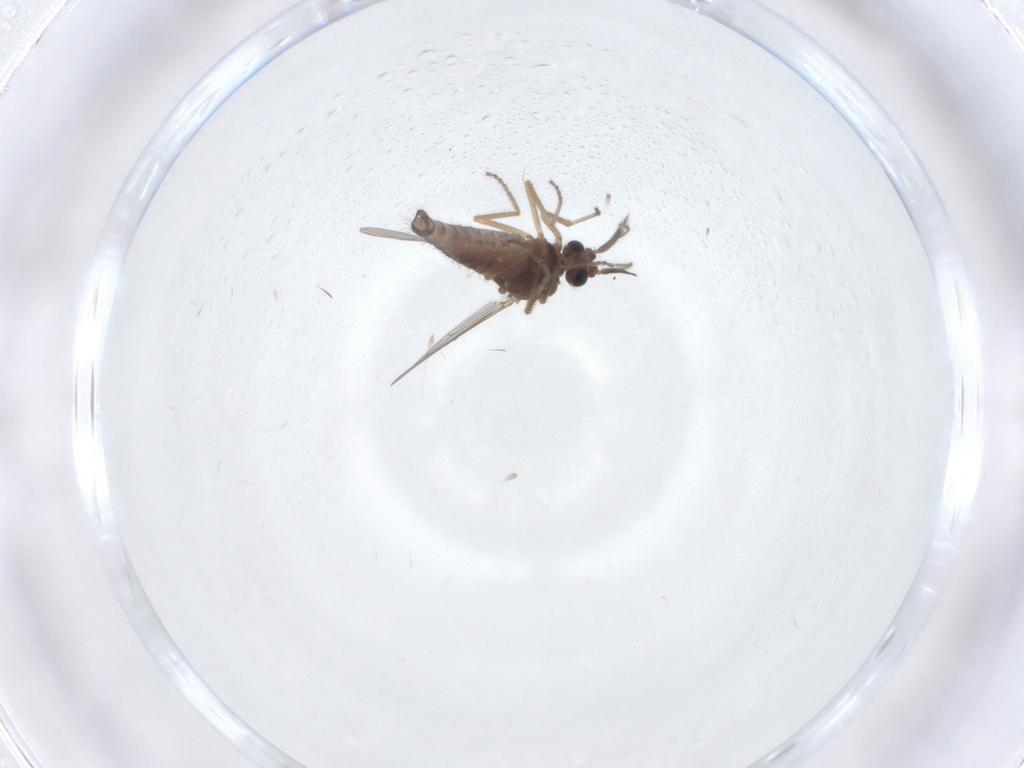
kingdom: Animalia
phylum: Arthropoda
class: Insecta
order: Diptera
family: Ceratopogonidae
